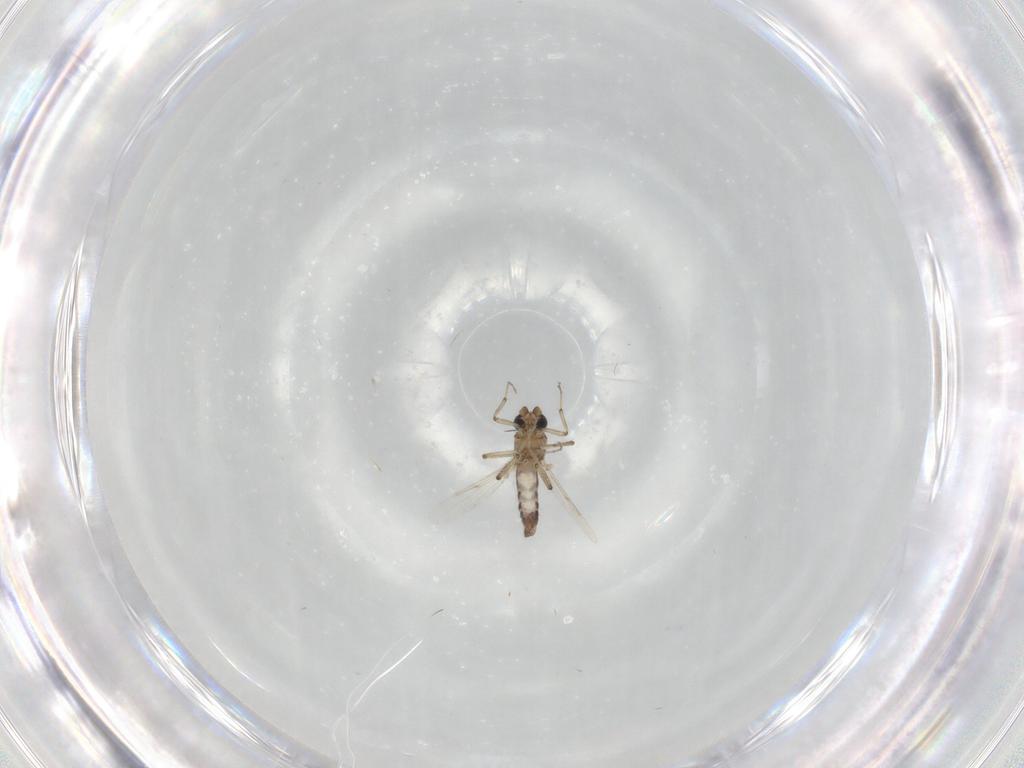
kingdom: Animalia
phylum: Arthropoda
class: Insecta
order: Diptera
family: Ceratopogonidae
